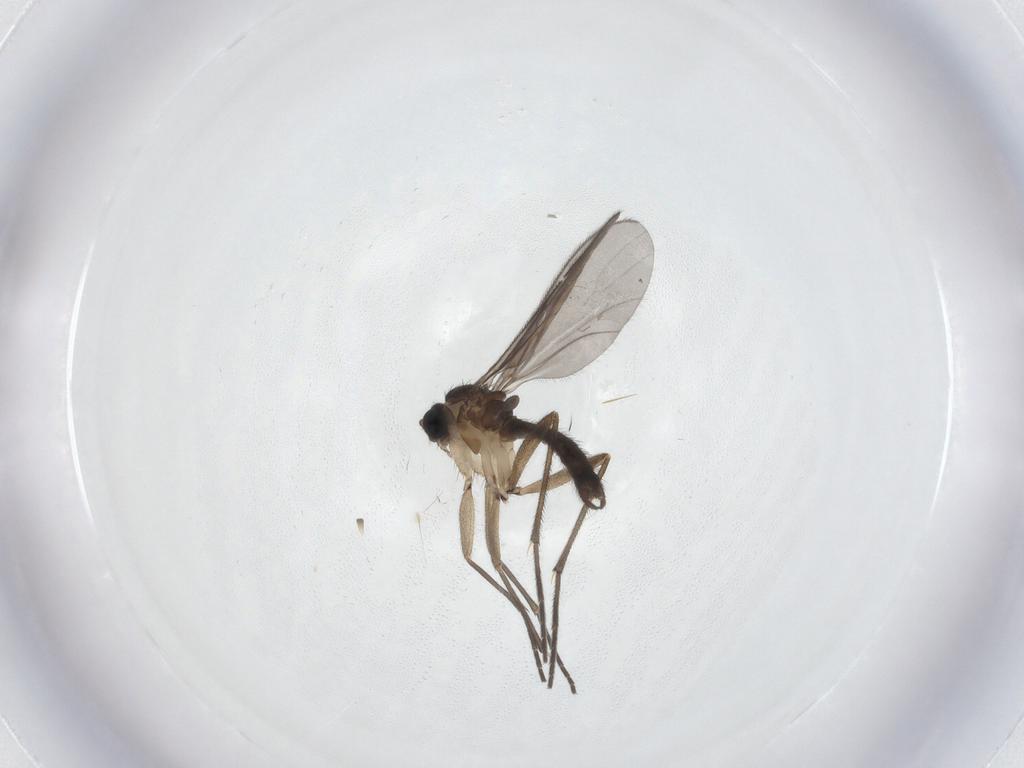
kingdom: Animalia
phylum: Arthropoda
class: Insecta
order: Diptera
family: Sciaridae
